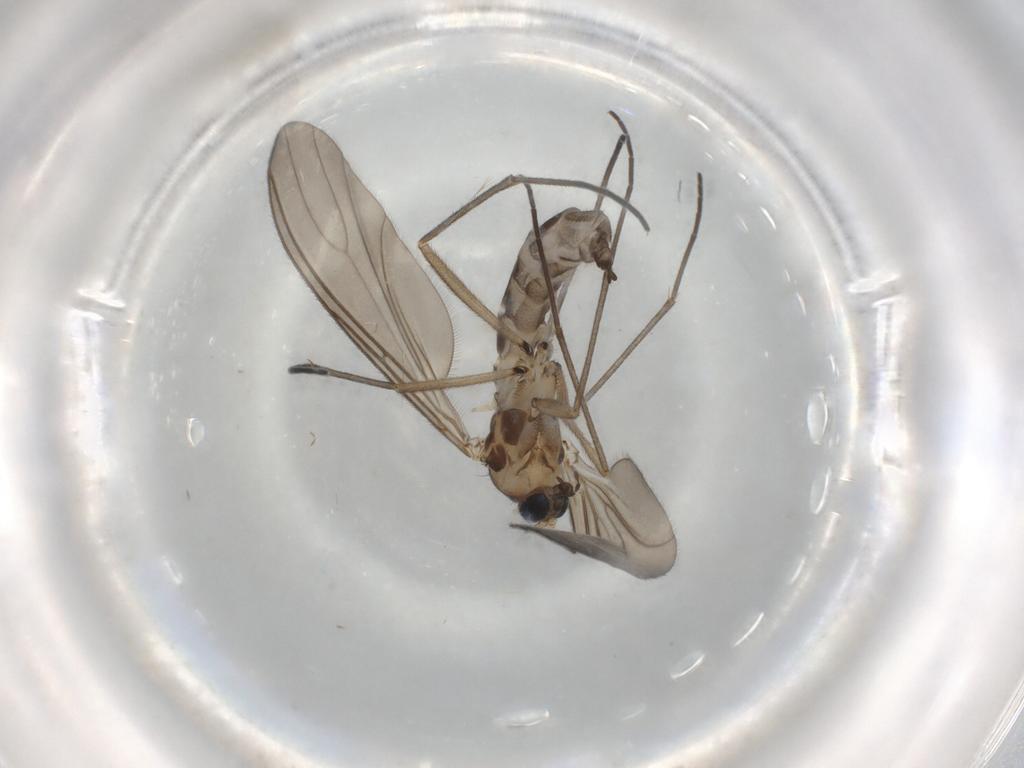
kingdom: Animalia
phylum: Arthropoda
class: Insecta
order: Diptera
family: Sciaridae
